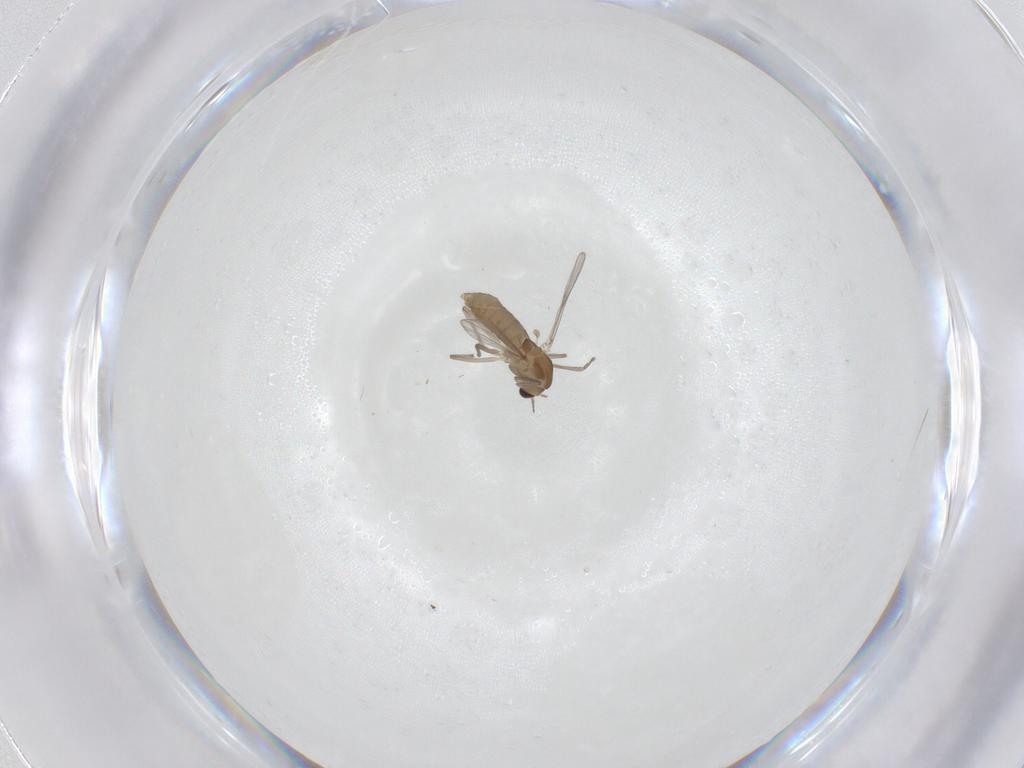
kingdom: Animalia
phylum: Arthropoda
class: Insecta
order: Diptera
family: Chironomidae
